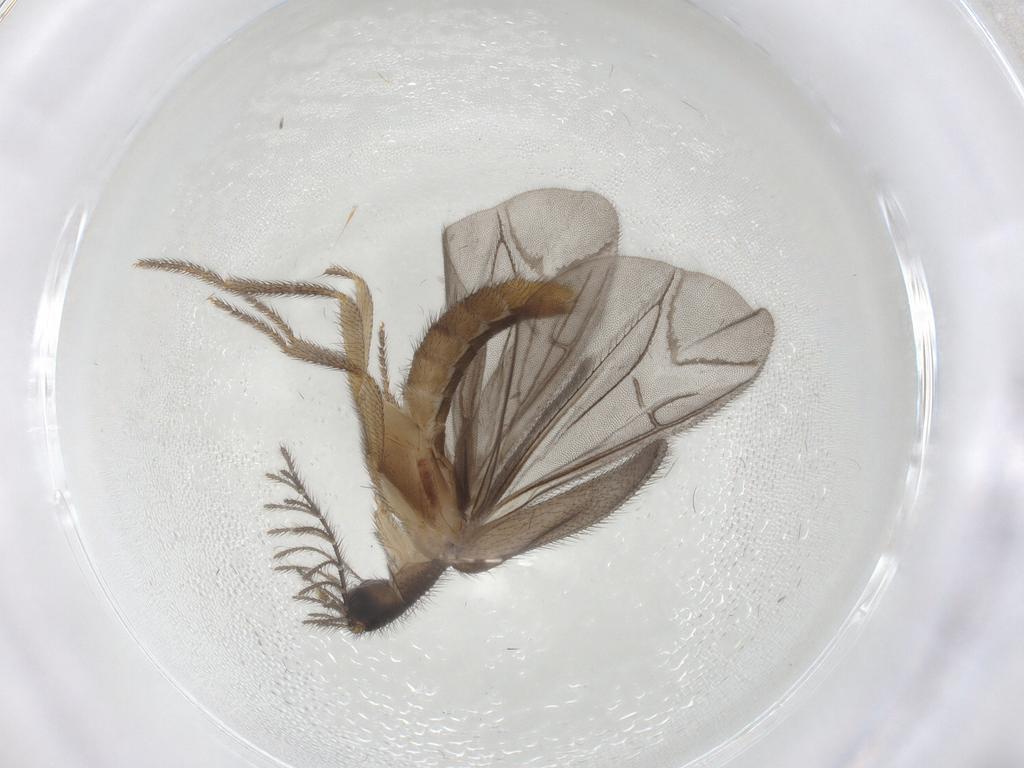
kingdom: Animalia
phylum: Arthropoda
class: Insecta
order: Coleoptera
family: Phengodidae
